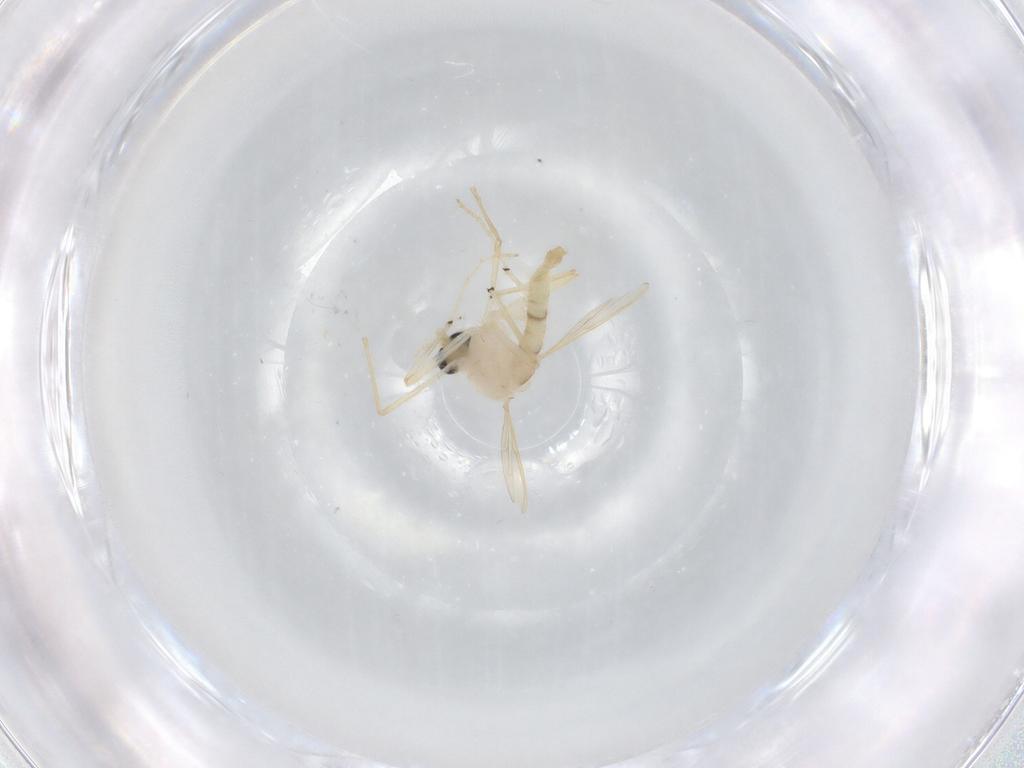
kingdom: Animalia
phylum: Arthropoda
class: Insecta
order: Diptera
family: Chironomidae
